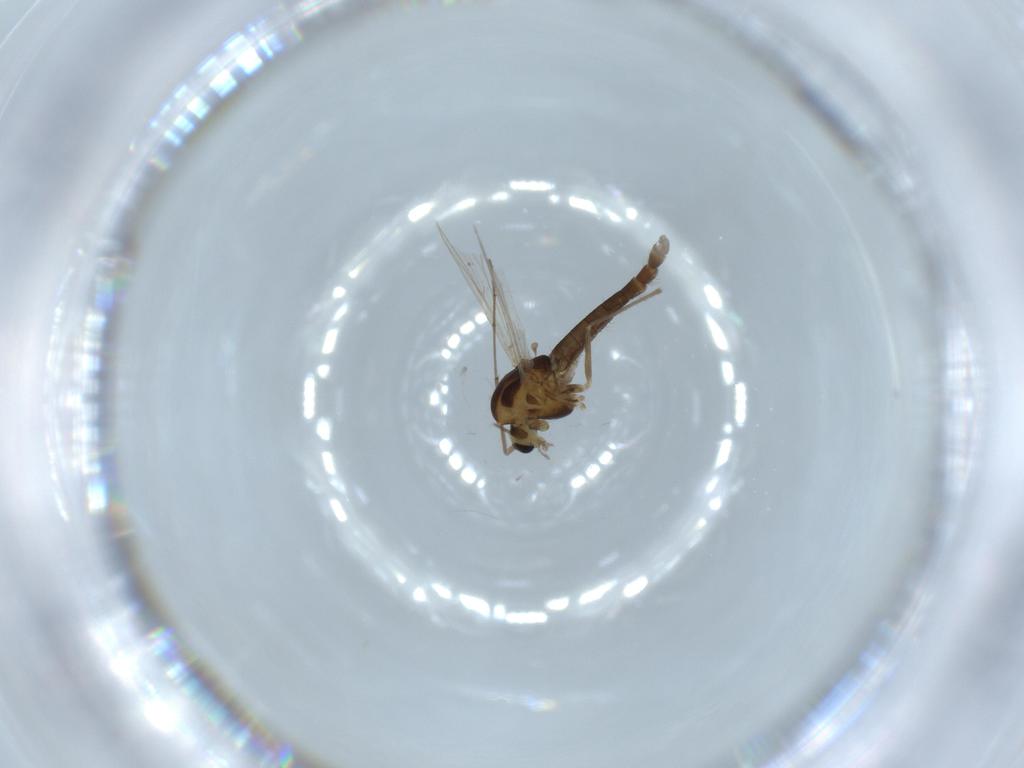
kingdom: Animalia
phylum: Arthropoda
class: Insecta
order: Diptera
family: Chironomidae
